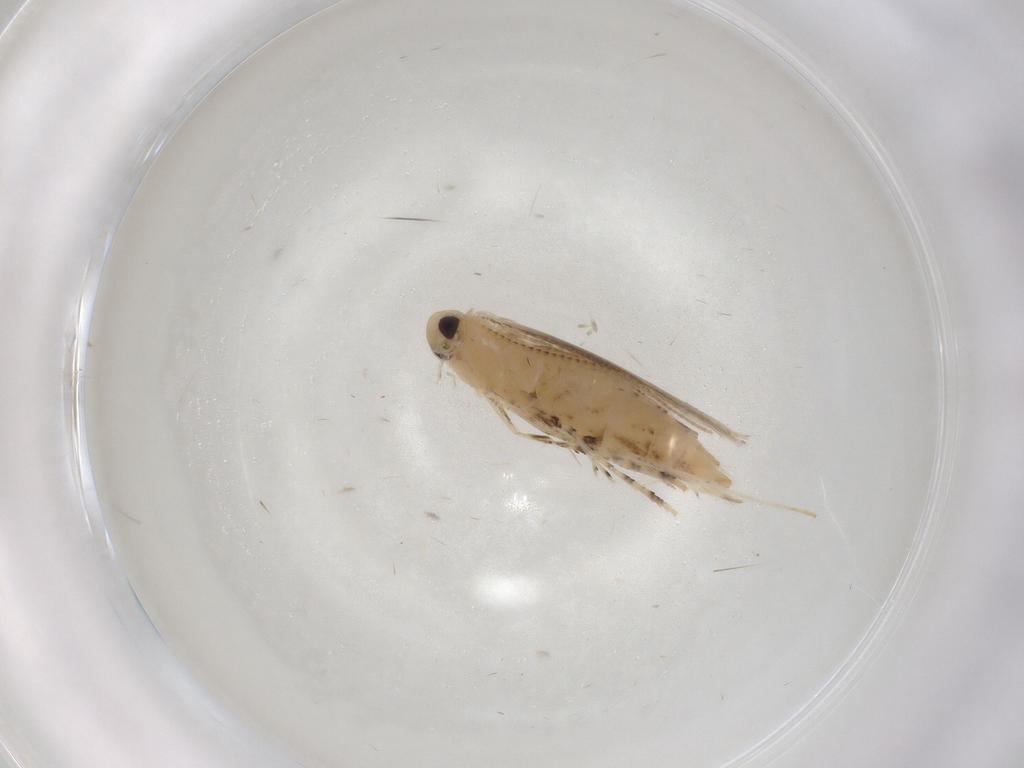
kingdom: Animalia
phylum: Arthropoda
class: Insecta
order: Lepidoptera
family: Gracillariidae
